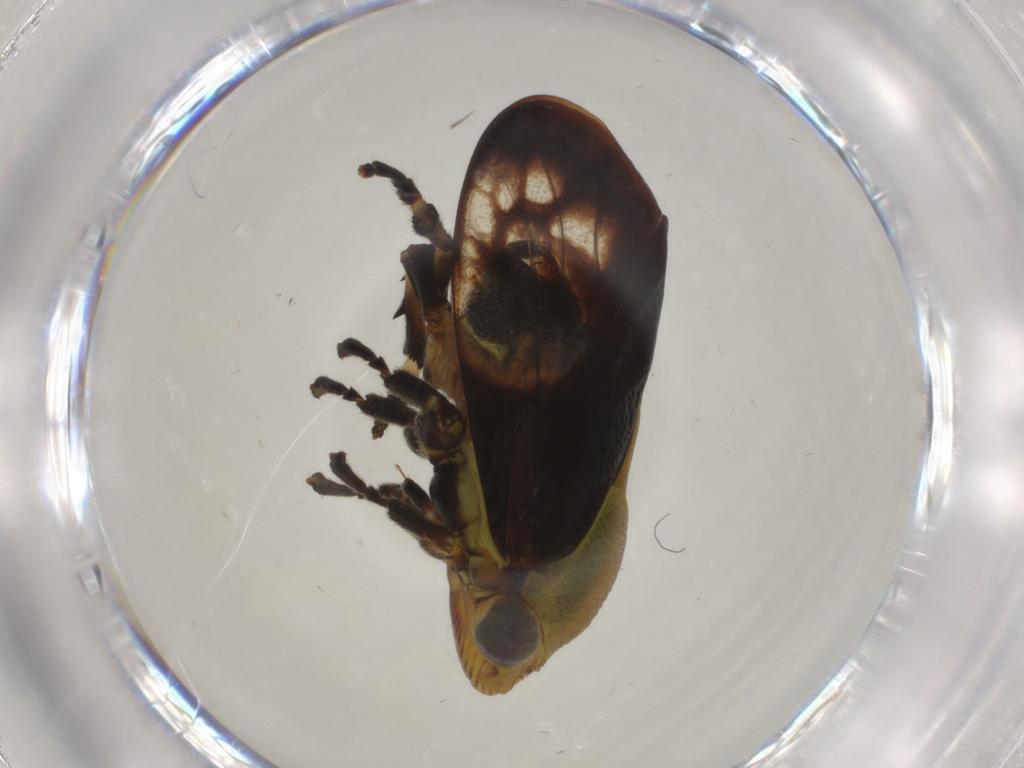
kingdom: Animalia
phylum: Arthropoda
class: Insecta
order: Hemiptera
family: Machaerotidae
